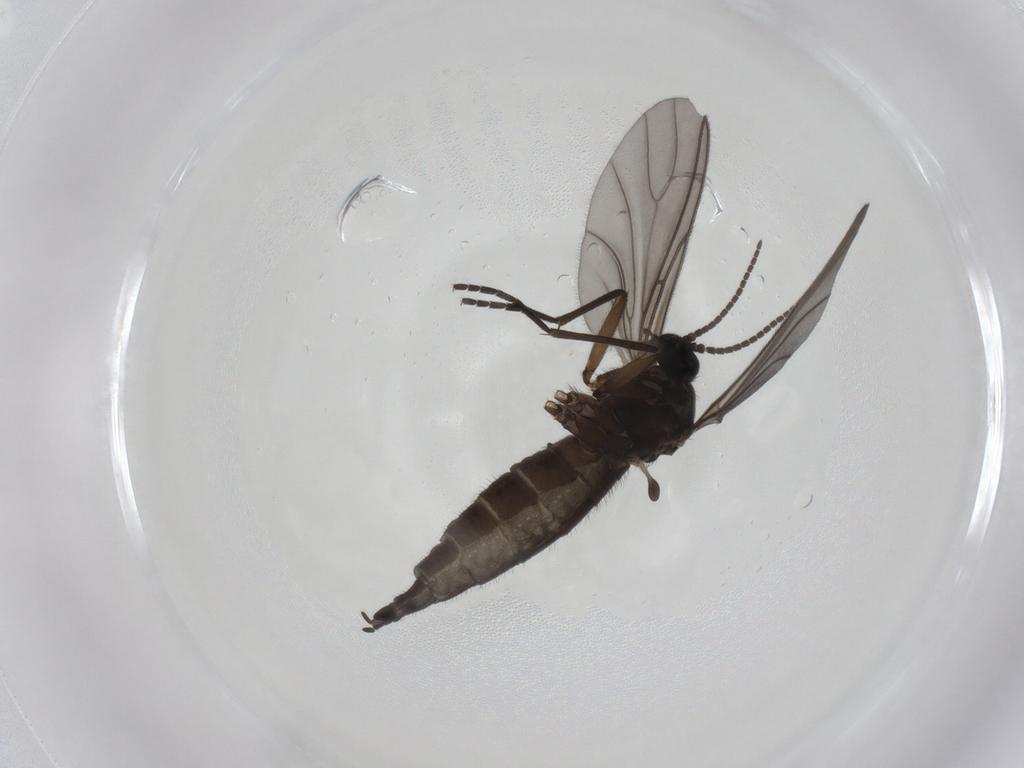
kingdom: Animalia
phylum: Arthropoda
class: Insecta
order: Diptera
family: Sciaridae
